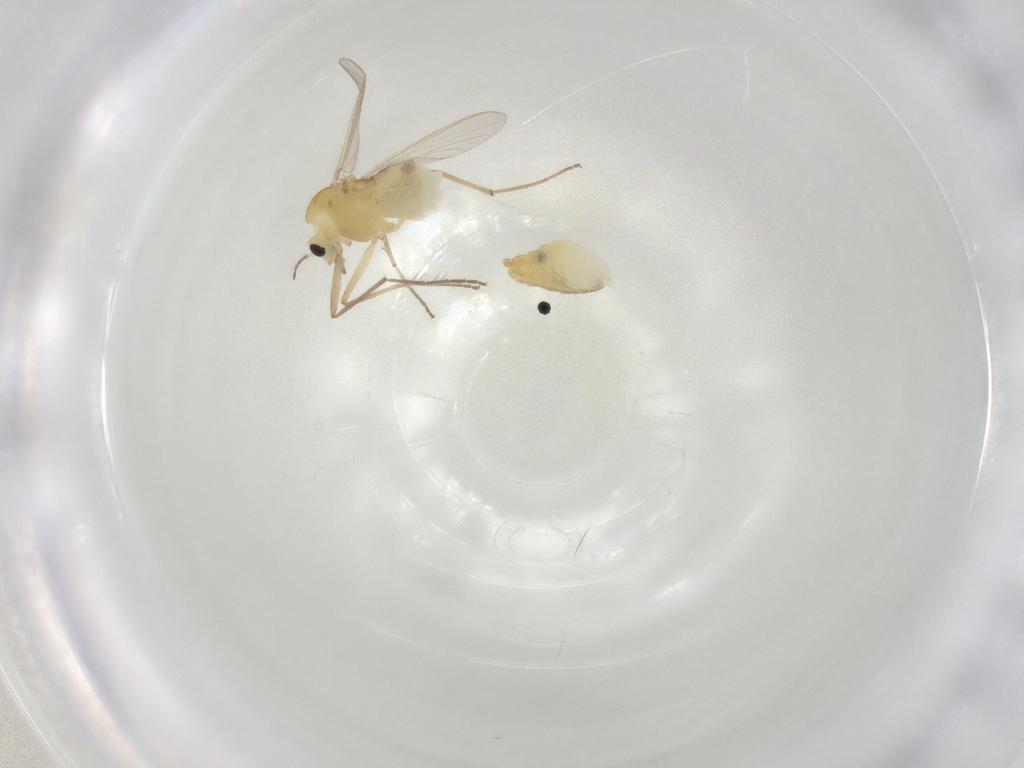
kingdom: Animalia
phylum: Arthropoda
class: Insecta
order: Diptera
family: Chironomidae
